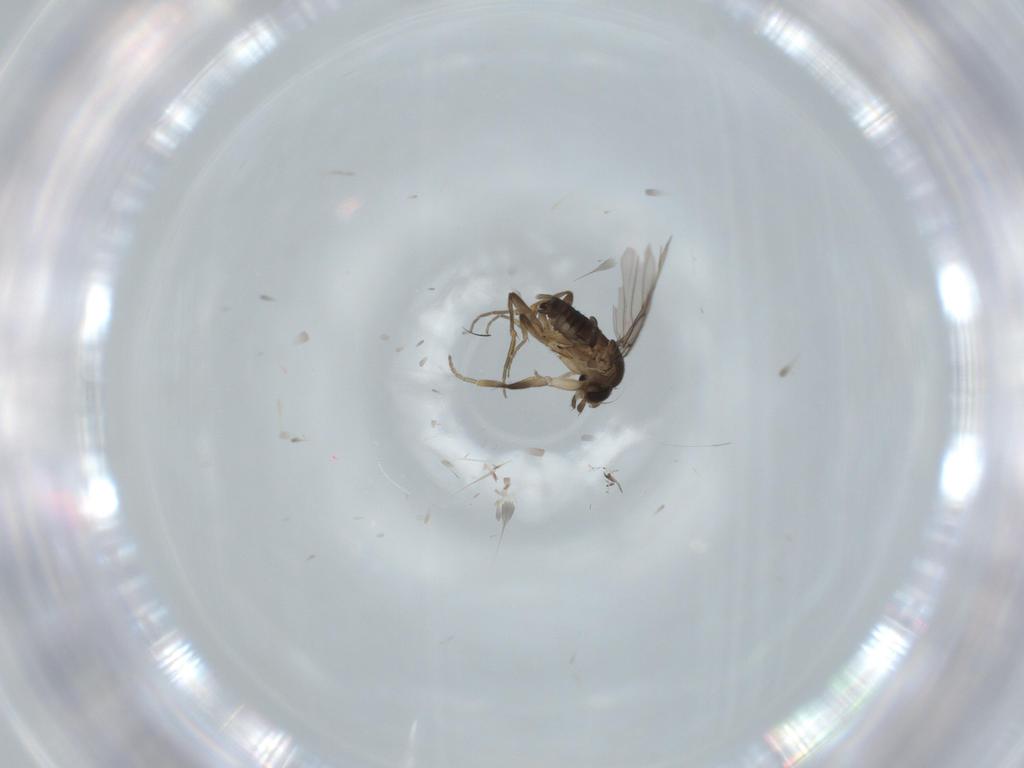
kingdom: Animalia
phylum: Arthropoda
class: Insecta
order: Diptera
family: Phoridae
